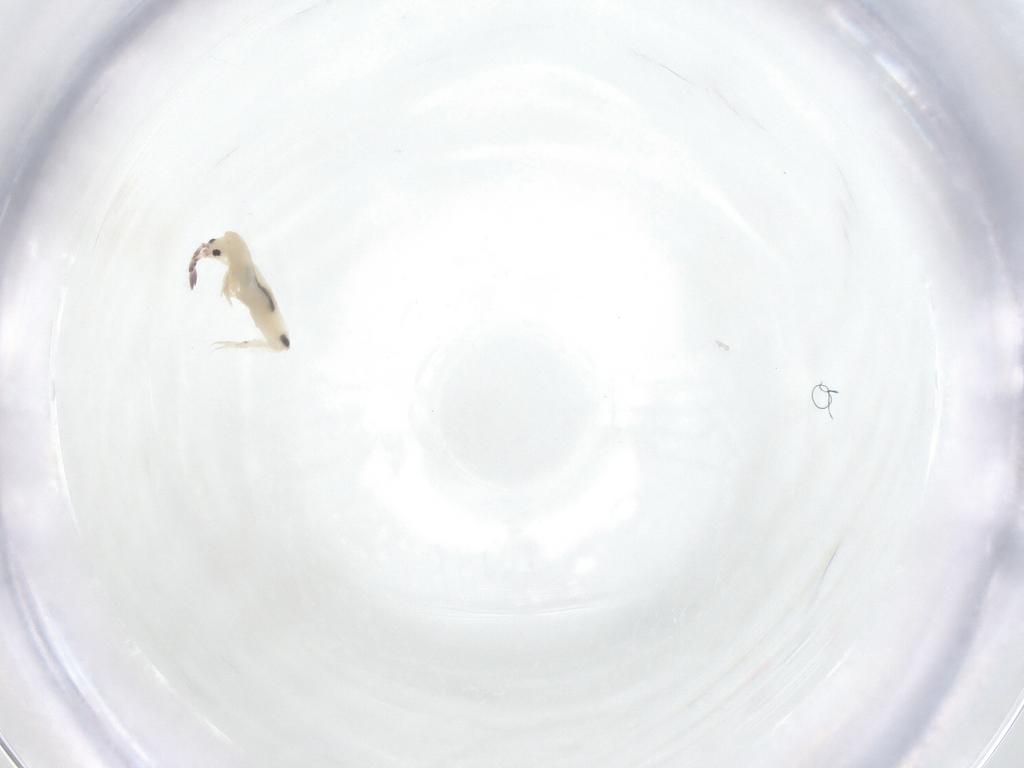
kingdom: Animalia
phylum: Arthropoda
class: Collembola
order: Entomobryomorpha
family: Entomobryidae
